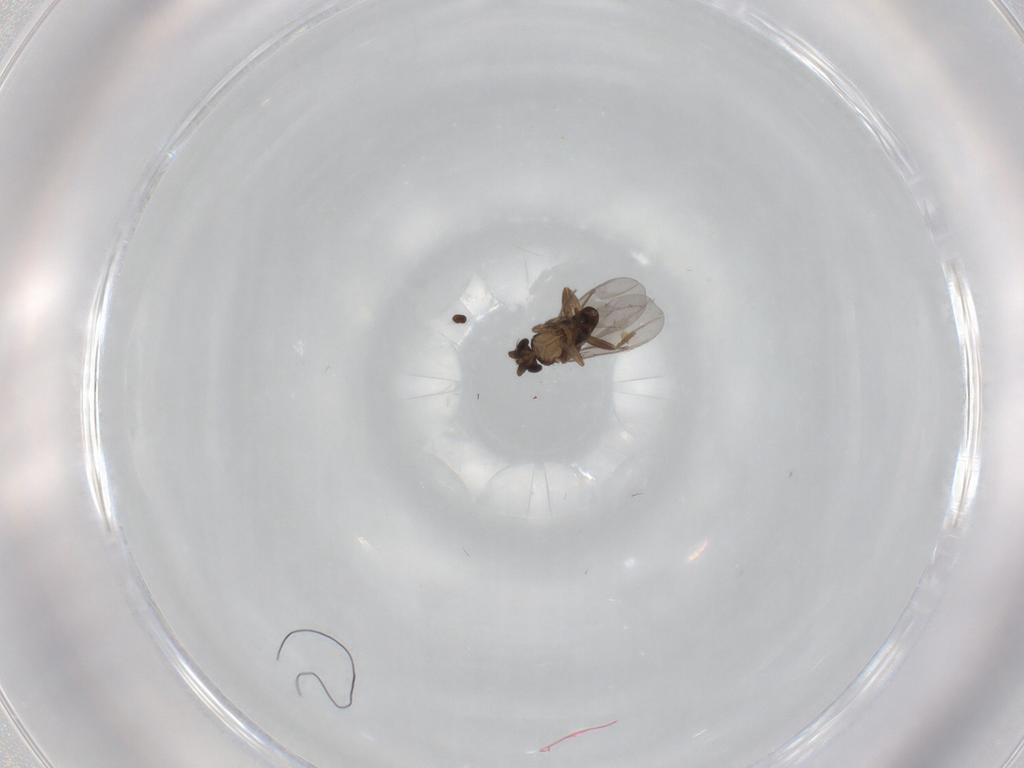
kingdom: Animalia
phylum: Arthropoda
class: Insecta
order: Diptera
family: Dolichopodidae
